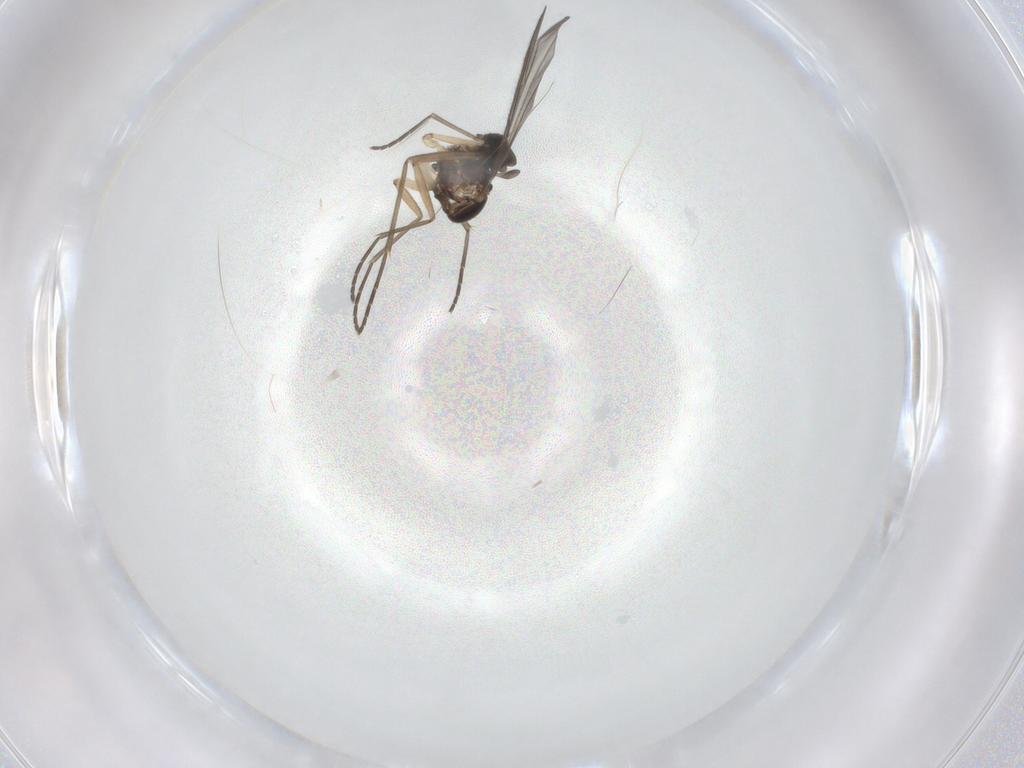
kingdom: Animalia
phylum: Arthropoda
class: Insecta
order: Diptera
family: Sciaridae
